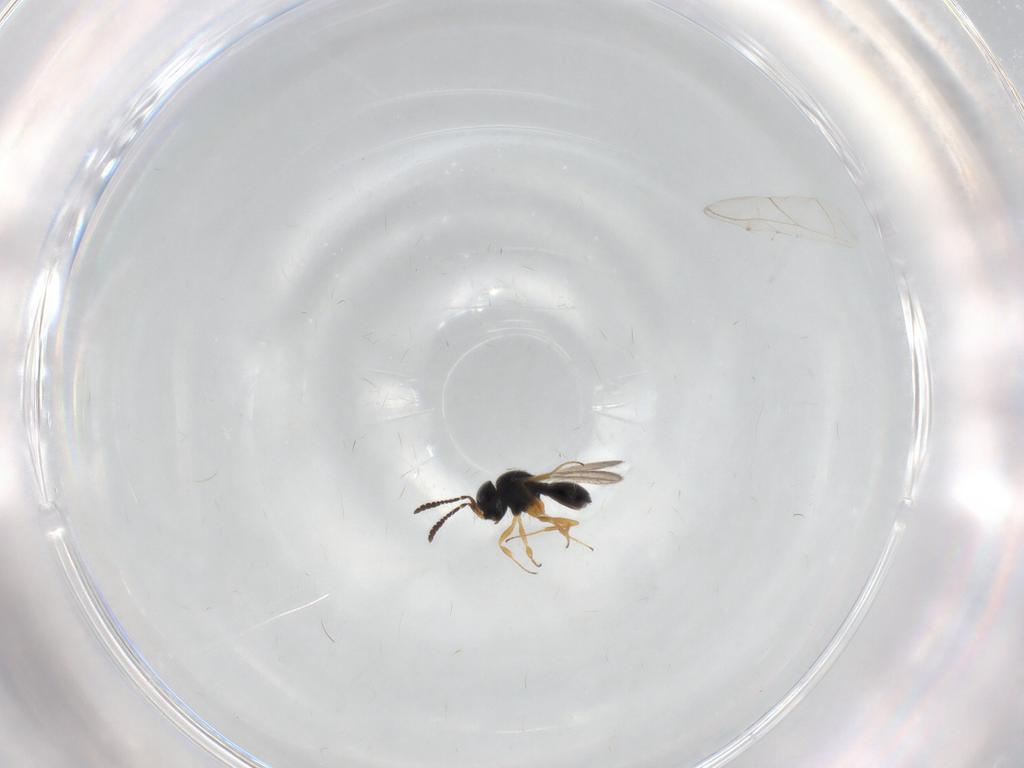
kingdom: Animalia
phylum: Arthropoda
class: Insecta
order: Hymenoptera
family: Scelionidae
